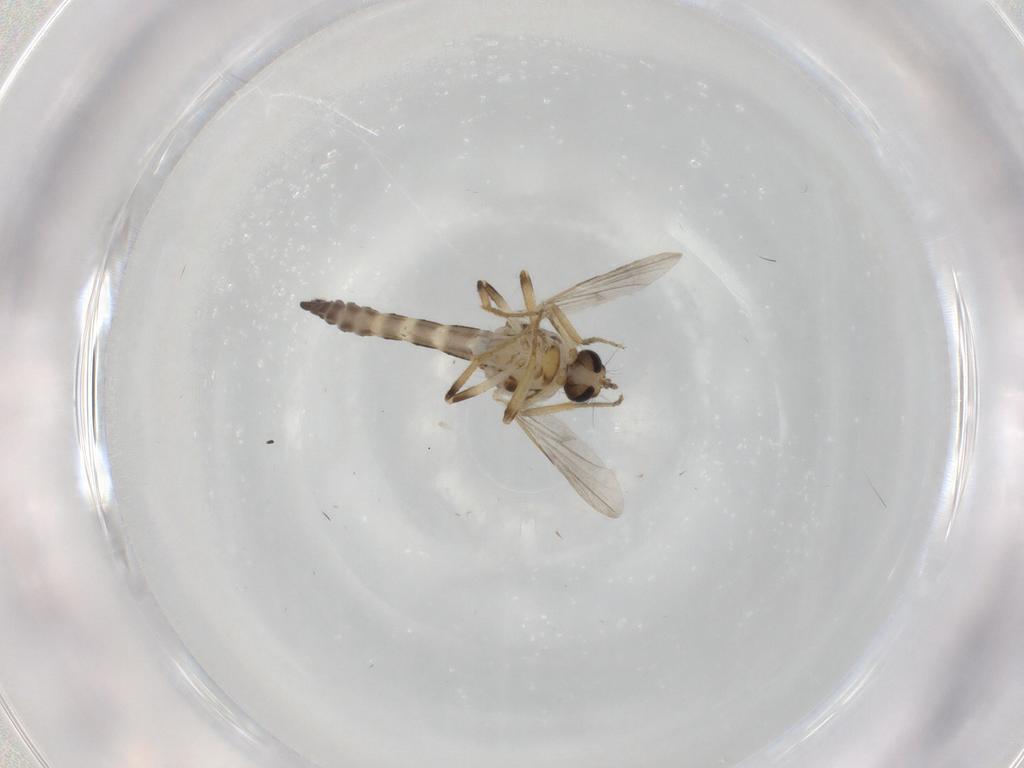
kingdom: Animalia
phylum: Arthropoda
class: Insecta
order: Diptera
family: Ceratopogonidae
